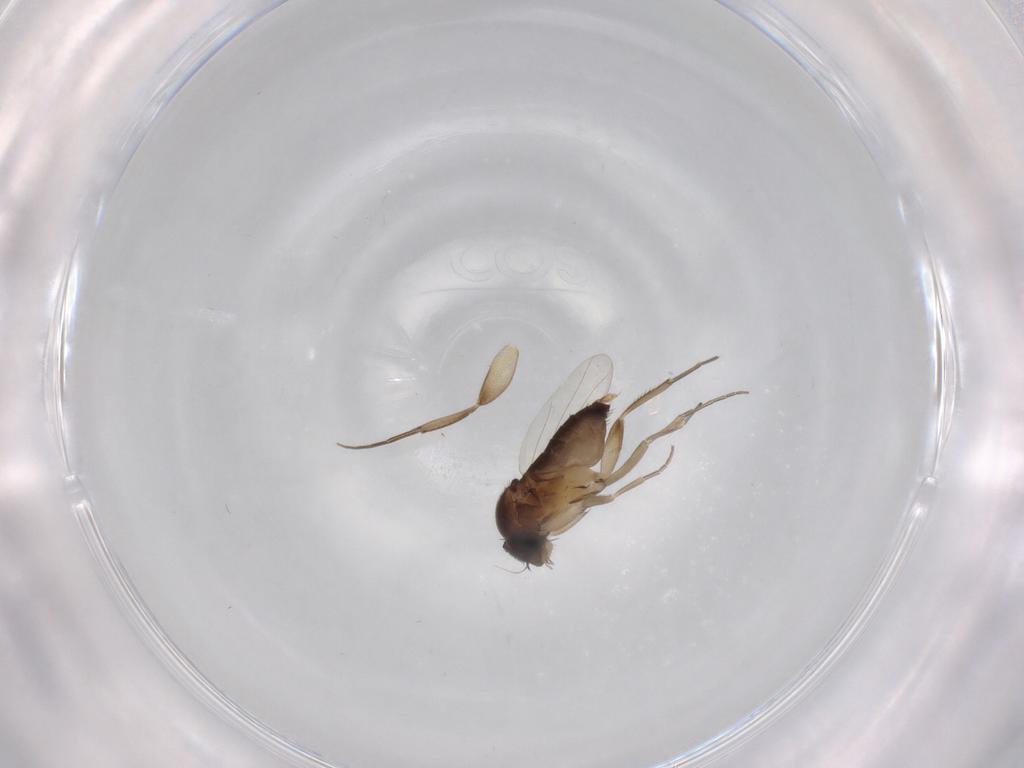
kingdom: Animalia
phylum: Arthropoda
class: Insecta
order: Diptera
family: Phoridae
